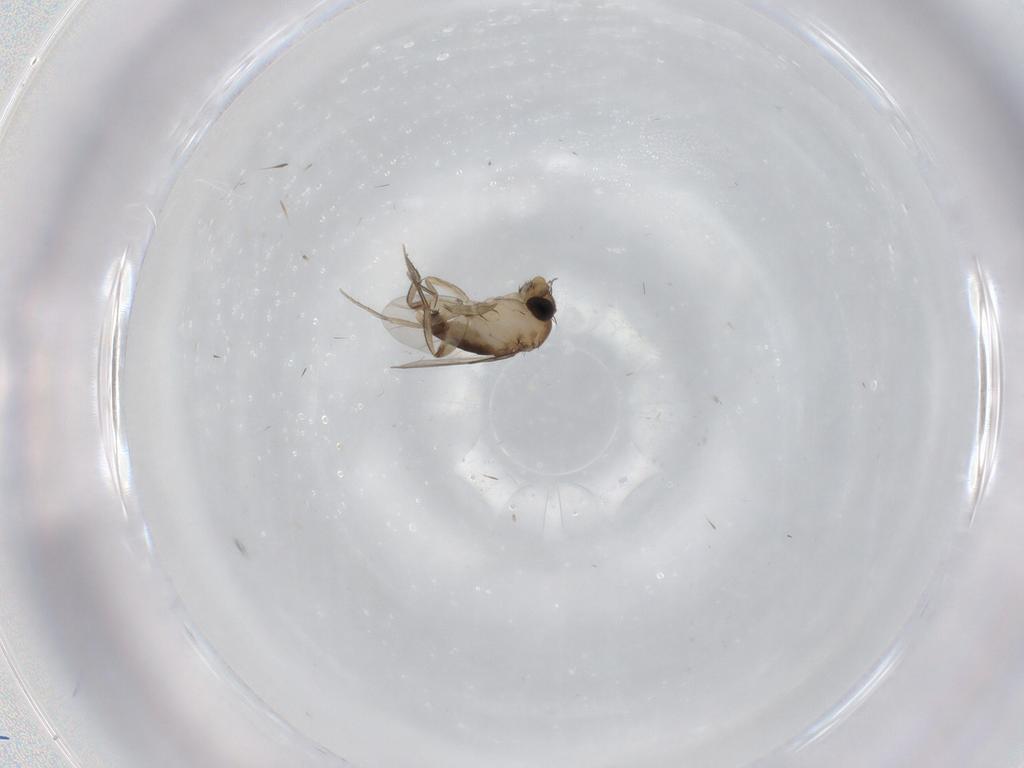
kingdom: Animalia
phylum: Arthropoda
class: Insecta
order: Diptera
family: Phoridae
